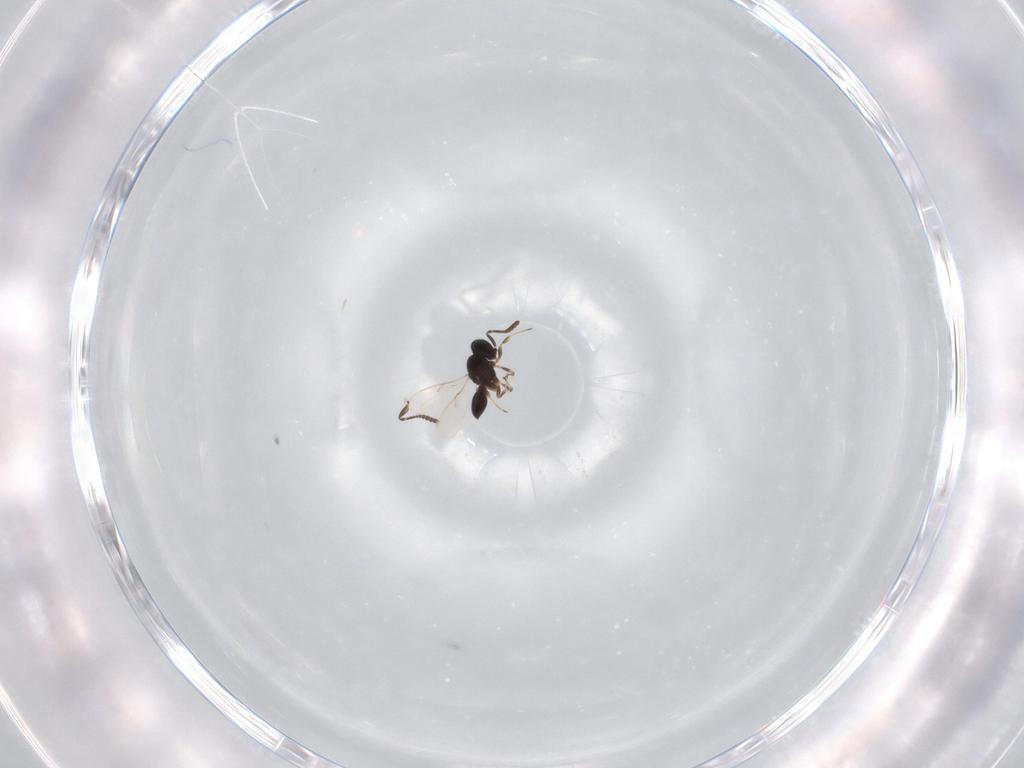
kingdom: Animalia
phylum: Arthropoda
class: Insecta
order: Hymenoptera
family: Scelionidae
